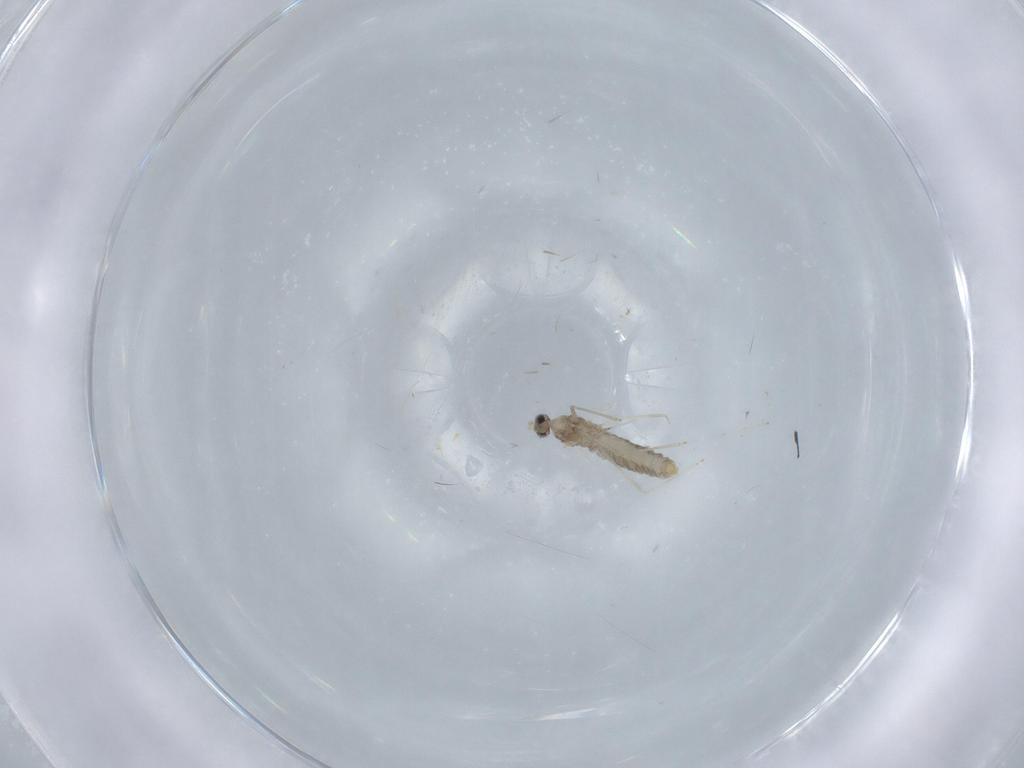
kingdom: Animalia
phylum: Arthropoda
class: Insecta
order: Diptera
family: Cecidomyiidae
